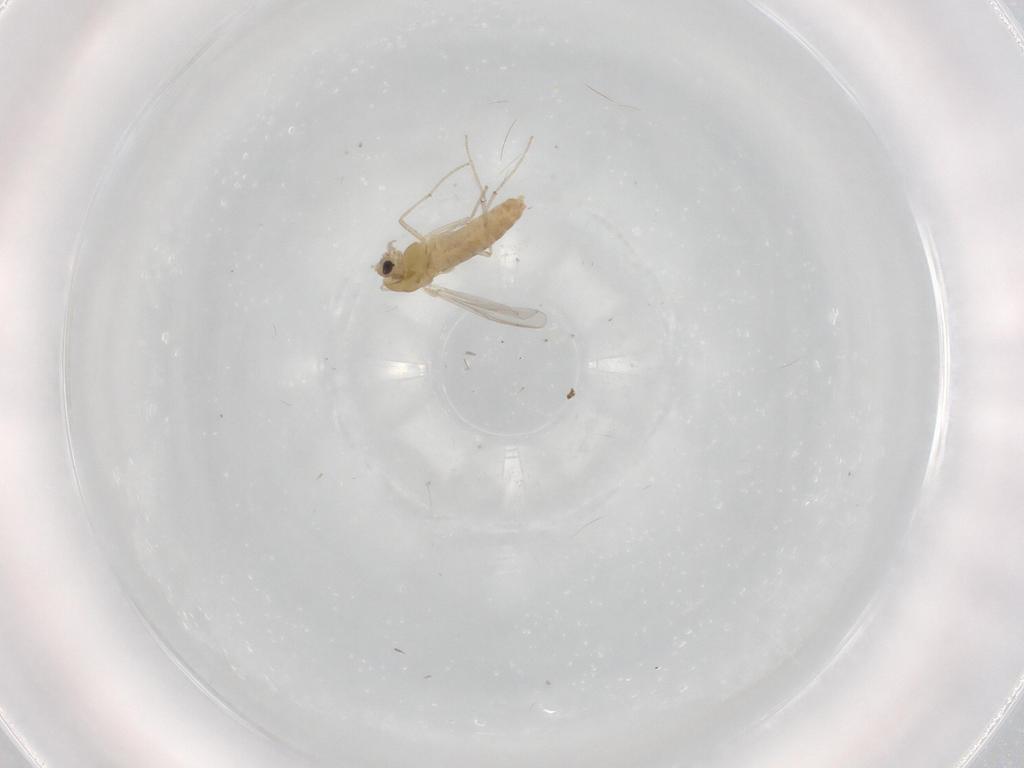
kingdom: Animalia
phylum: Arthropoda
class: Insecta
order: Diptera
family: Chironomidae
